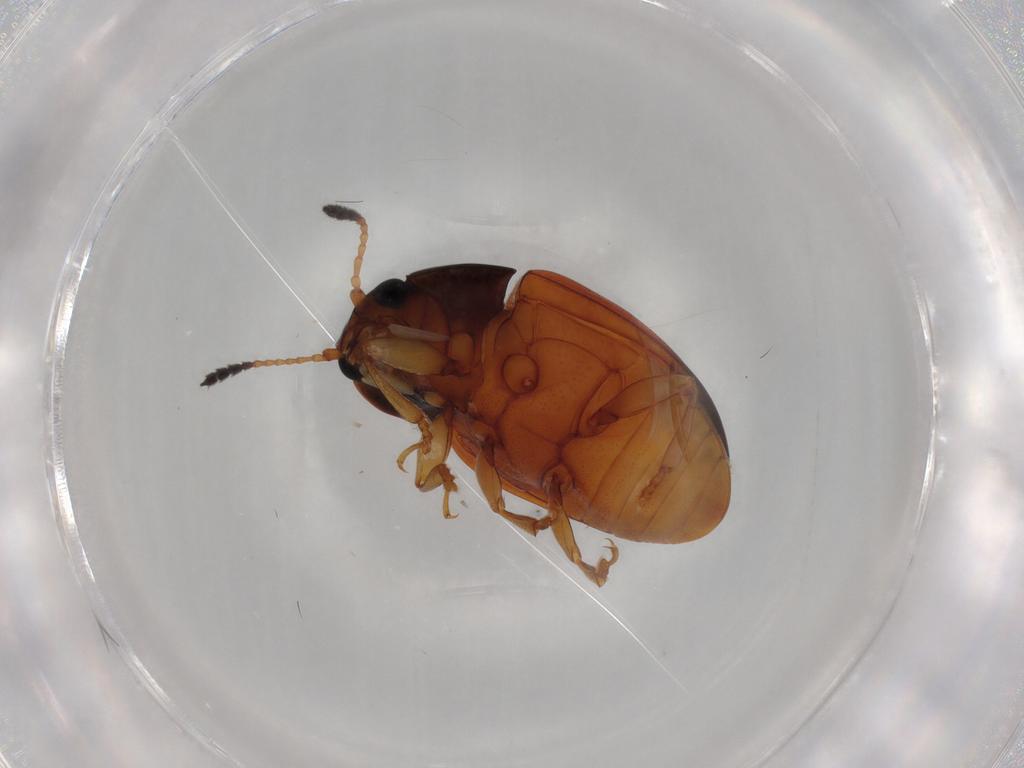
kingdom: Animalia
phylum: Arthropoda
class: Insecta
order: Coleoptera
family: Erotylidae
